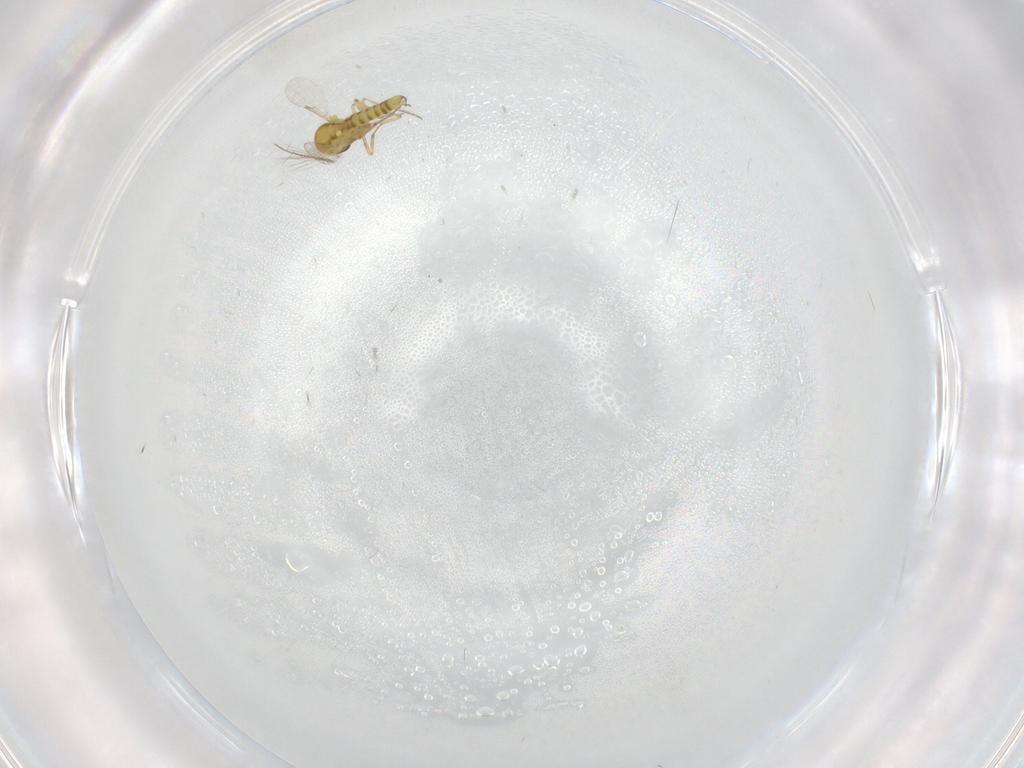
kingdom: Animalia
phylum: Arthropoda
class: Insecta
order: Diptera
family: Ceratopogonidae
